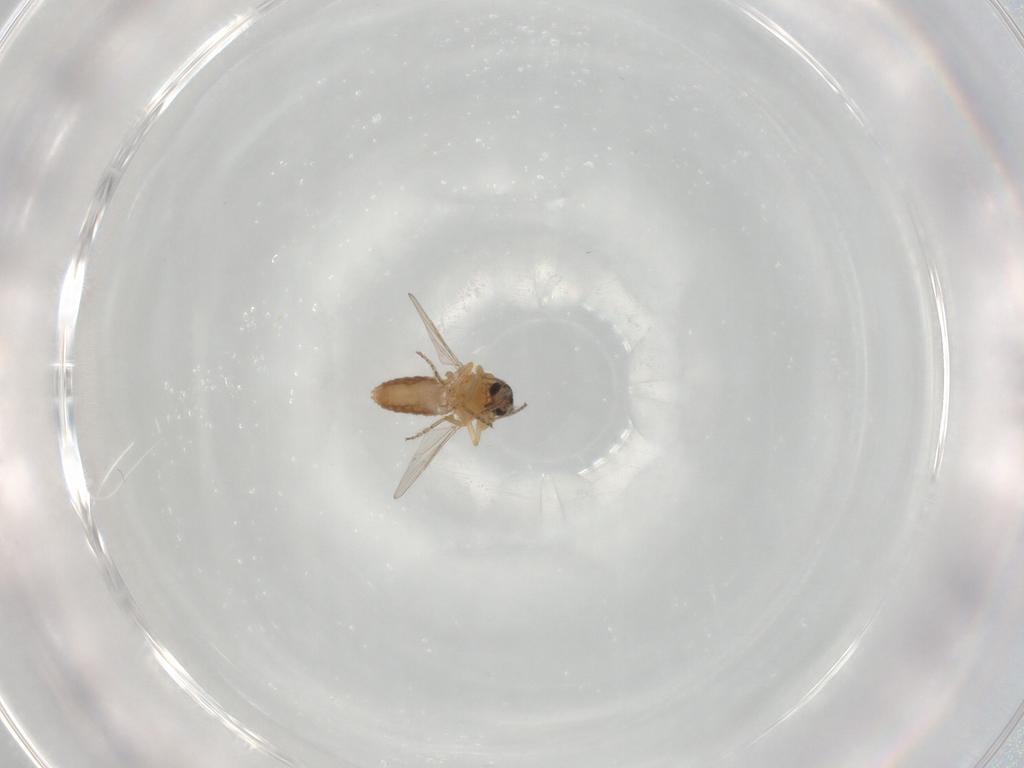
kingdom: Animalia
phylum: Arthropoda
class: Insecta
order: Diptera
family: Ceratopogonidae
